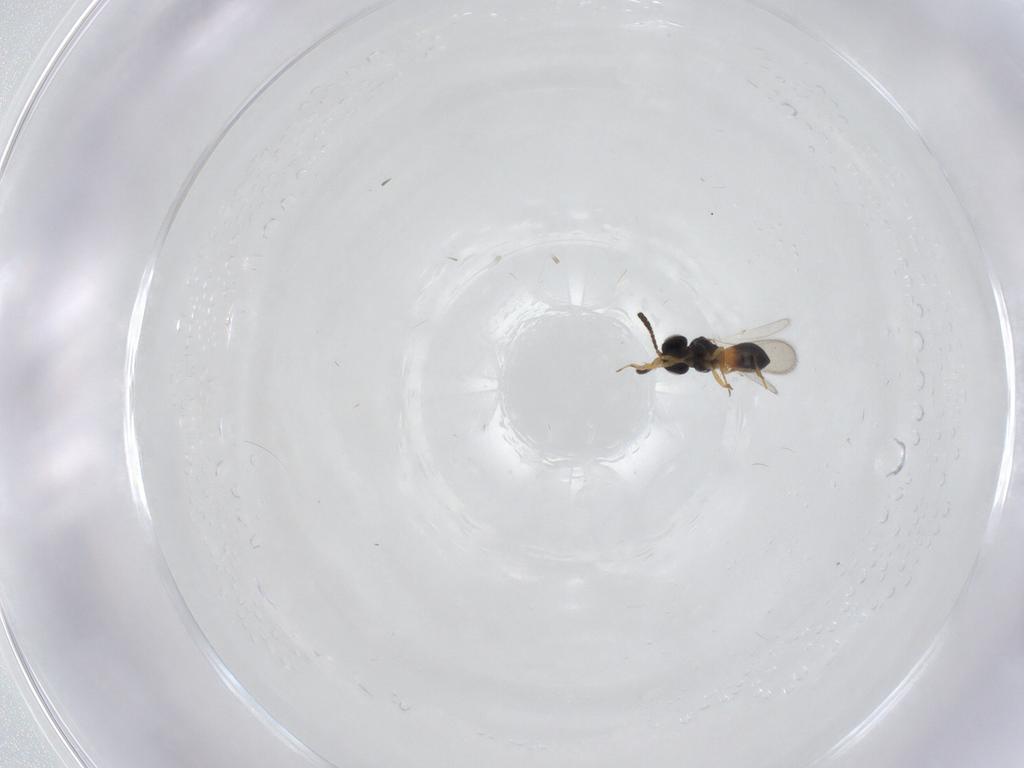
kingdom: Animalia
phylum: Arthropoda
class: Insecta
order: Hymenoptera
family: Scelionidae
